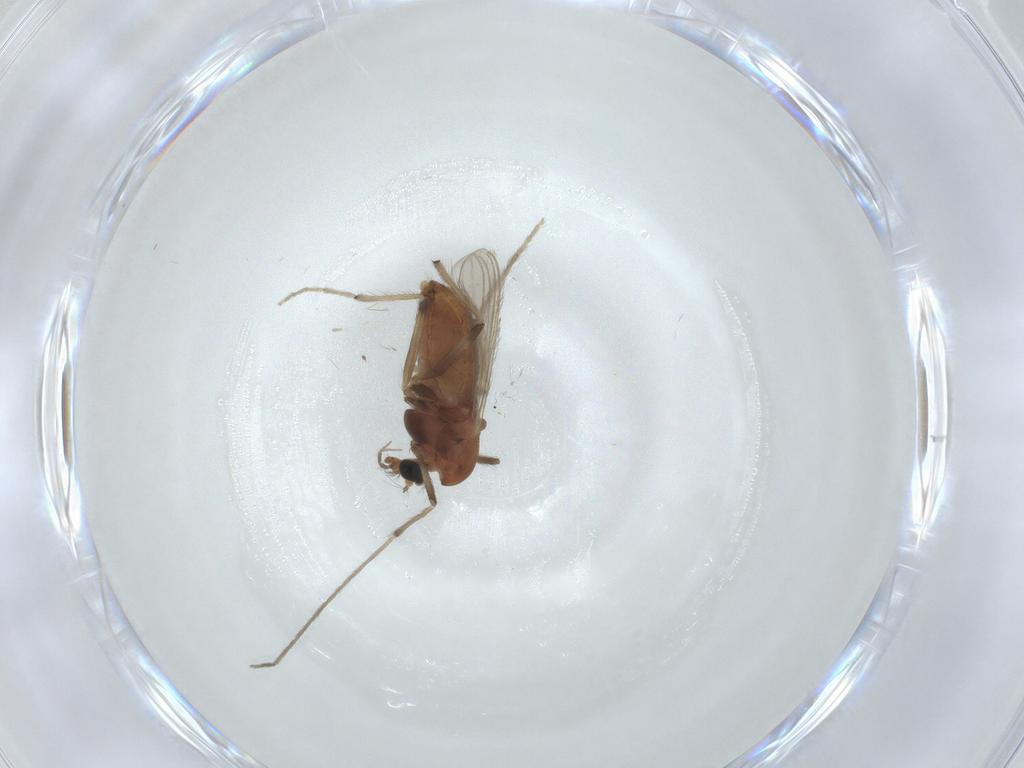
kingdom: Animalia
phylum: Arthropoda
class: Insecta
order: Diptera
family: Chironomidae
